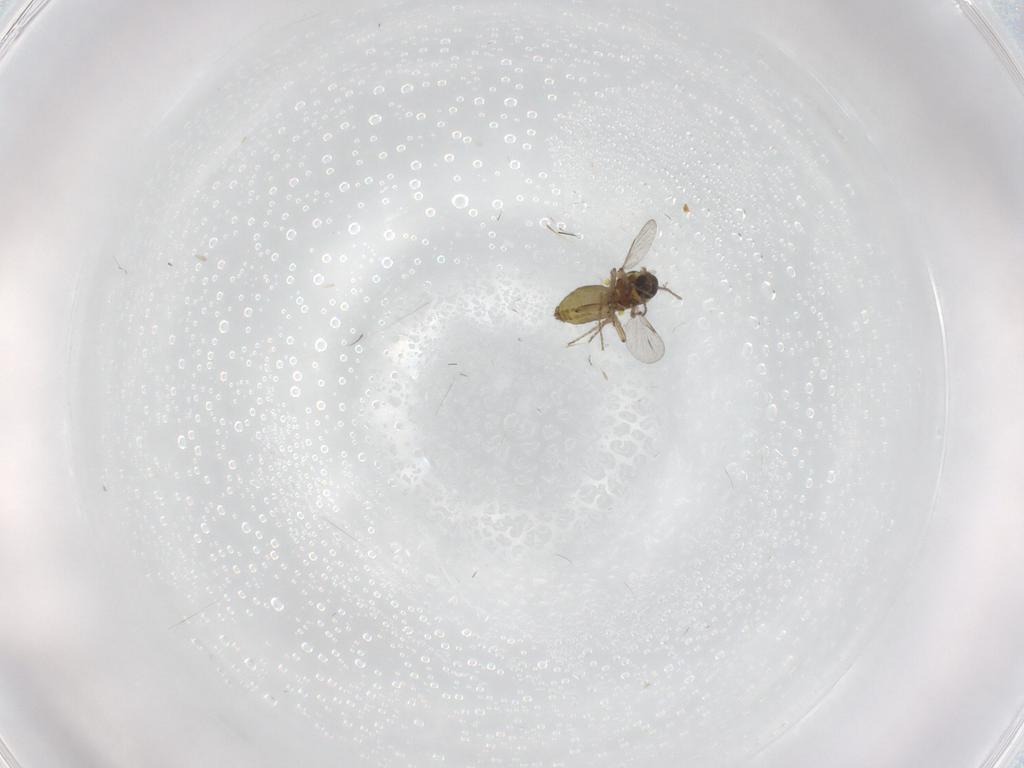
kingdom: Animalia
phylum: Arthropoda
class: Insecta
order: Diptera
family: Ceratopogonidae
